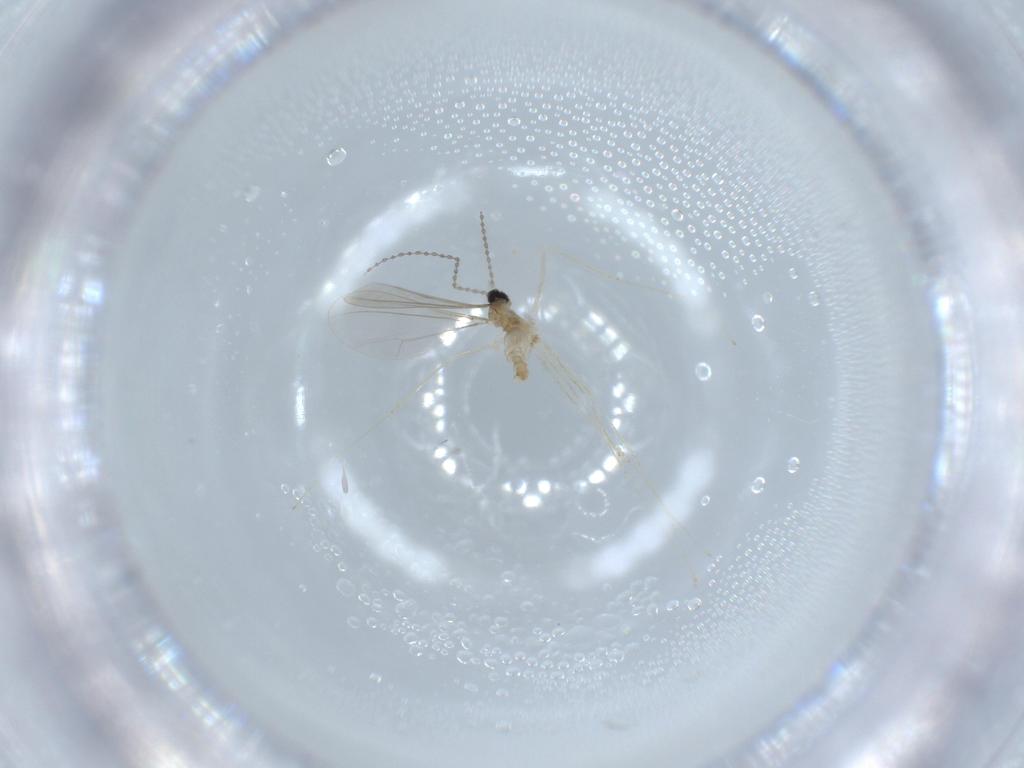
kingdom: Animalia
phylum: Arthropoda
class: Insecta
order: Diptera
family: Cecidomyiidae
